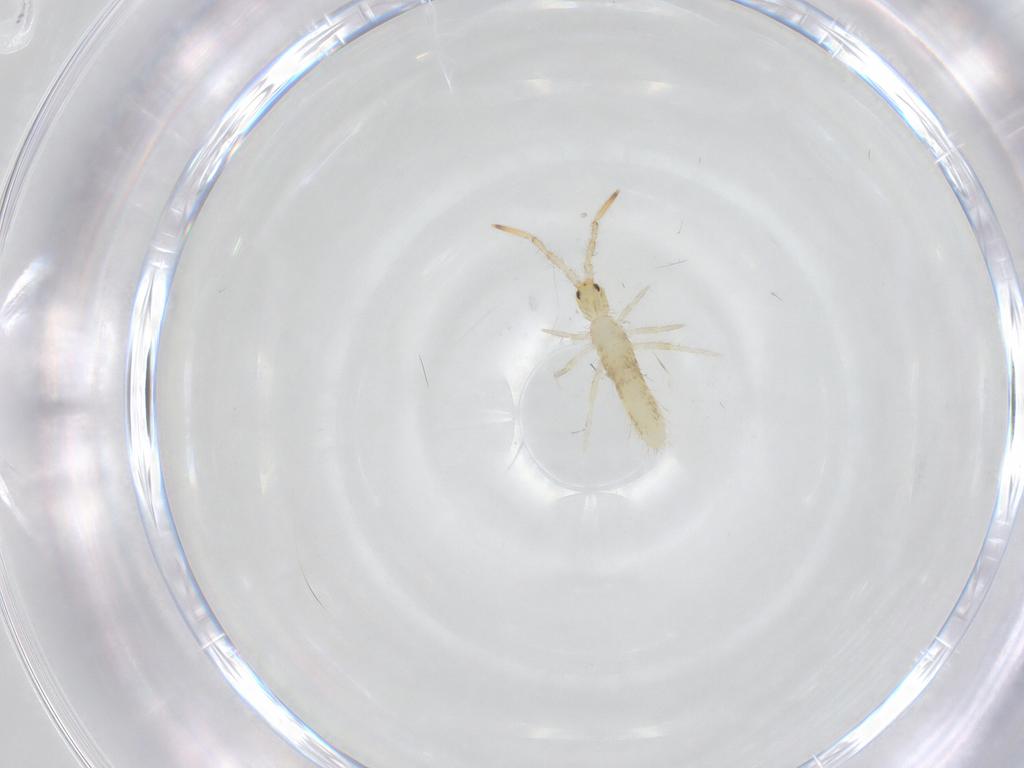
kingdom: Animalia
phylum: Arthropoda
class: Collembola
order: Entomobryomorpha
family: Entomobryidae
